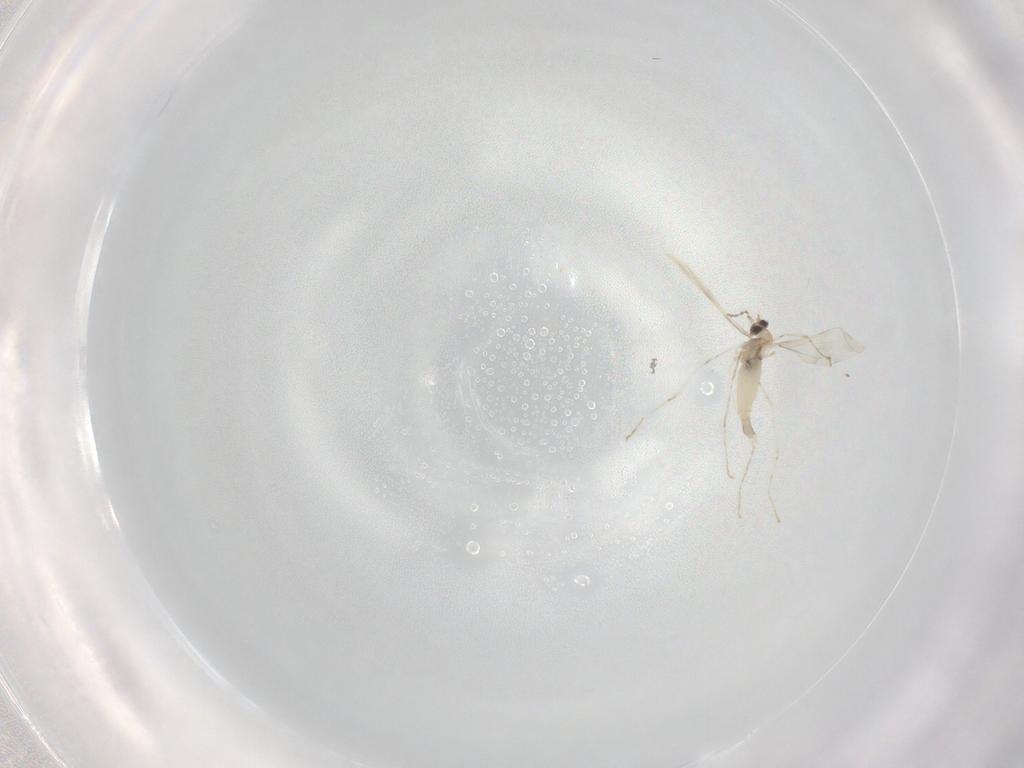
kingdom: Animalia
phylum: Arthropoda
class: Insecta
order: Diptera
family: Cecidomyiidae
